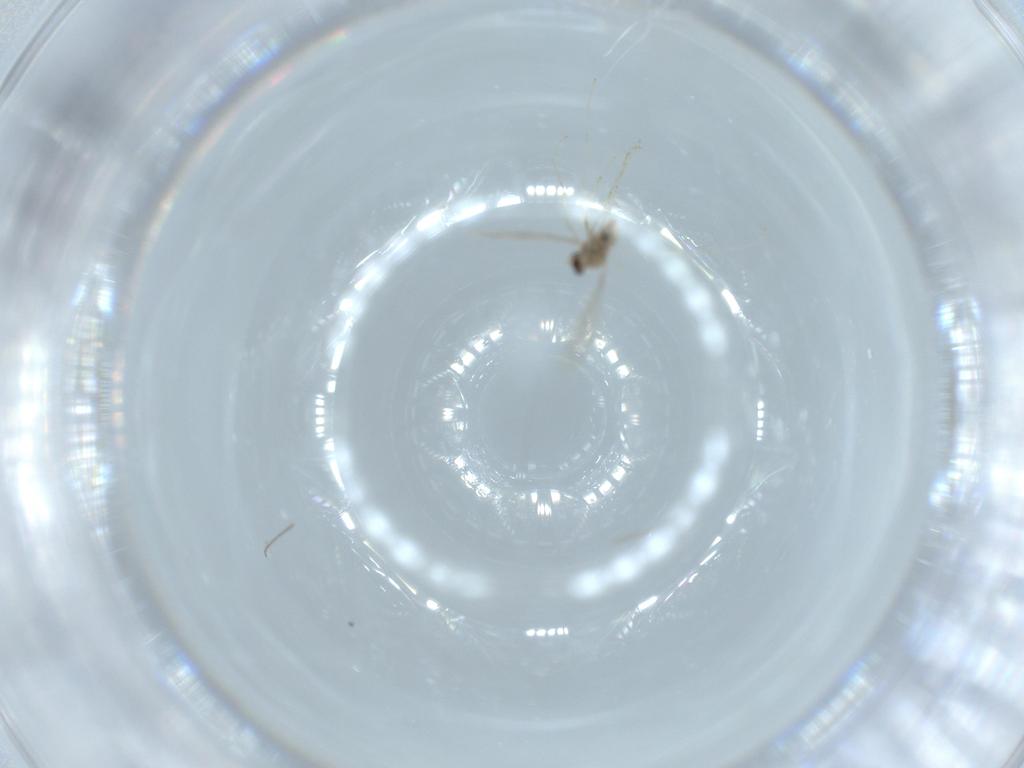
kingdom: Animalia
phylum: Arthropoda
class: Insecta
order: Diptera
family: Cecidomyiidae
